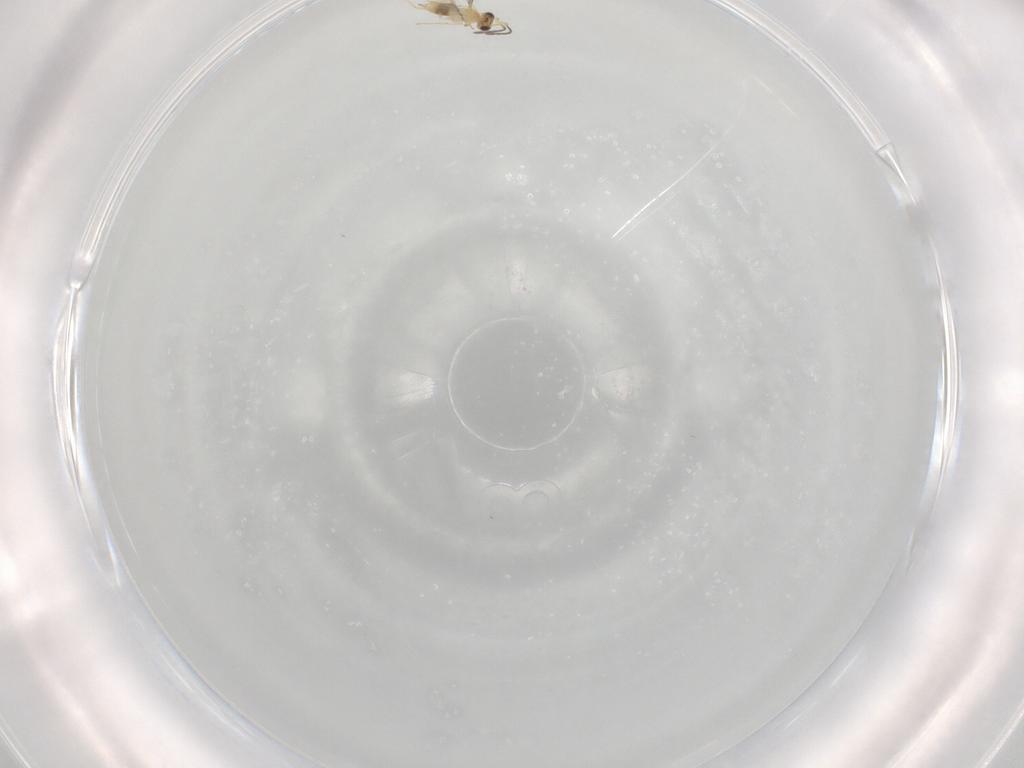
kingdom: Animalia
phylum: Arthropoda
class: Insecta
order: Hymenoptera
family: Mymaridae
